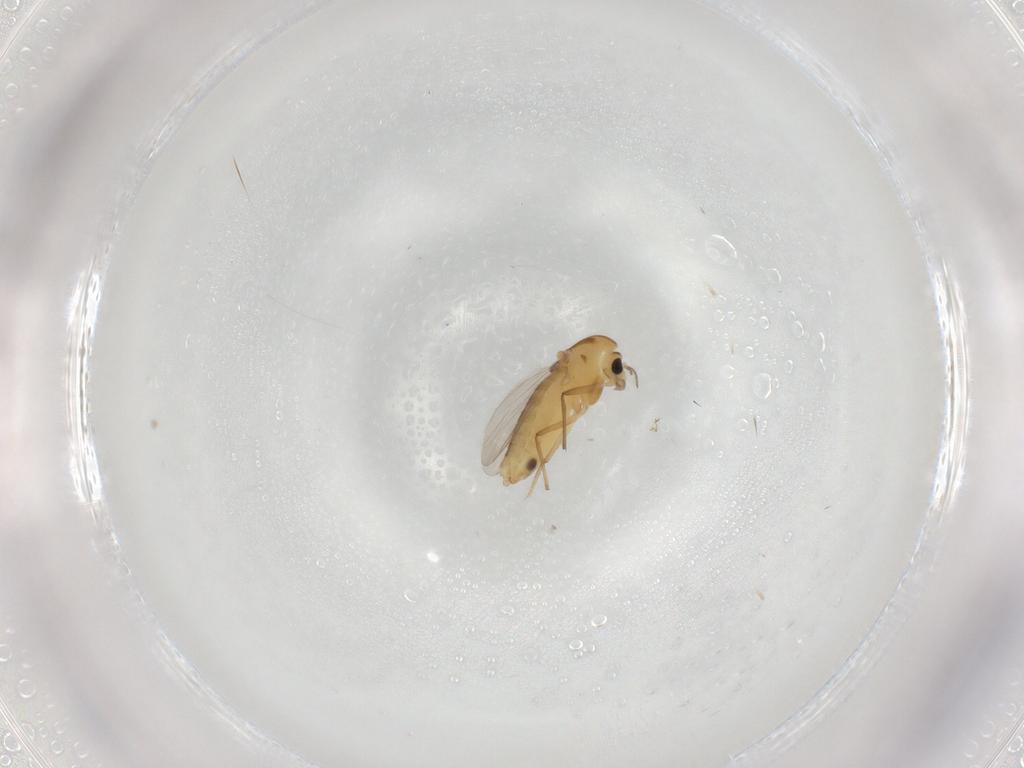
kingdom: Animalia
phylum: Arthropoda
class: Insecta
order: Diptera
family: Chironomidae
